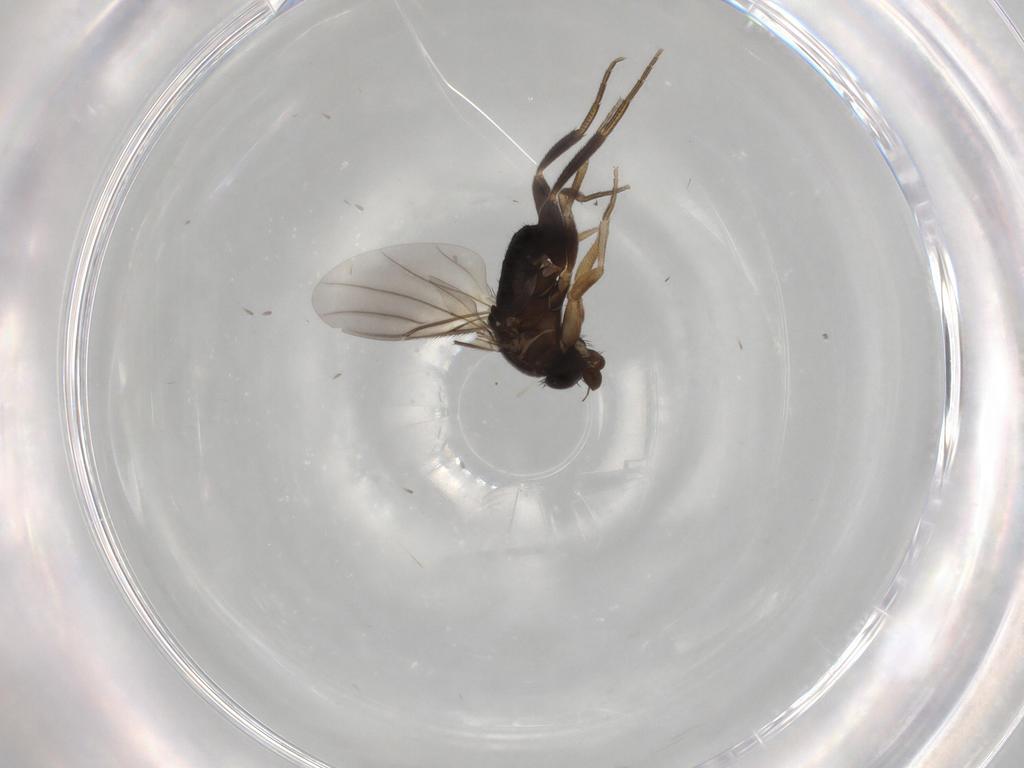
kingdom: Animalia
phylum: Arthropoda
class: Insecta
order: Diptera
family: Phoridae
